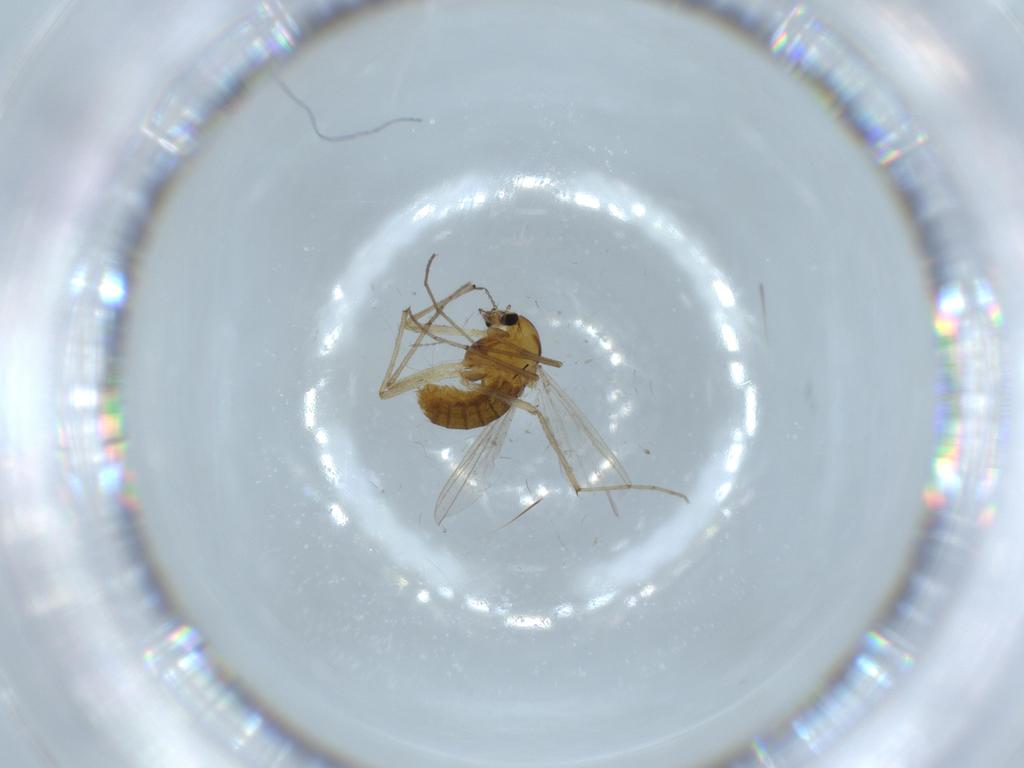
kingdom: Animalia
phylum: Arthropoda
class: Insecta
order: Diptera
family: Chironomidae
